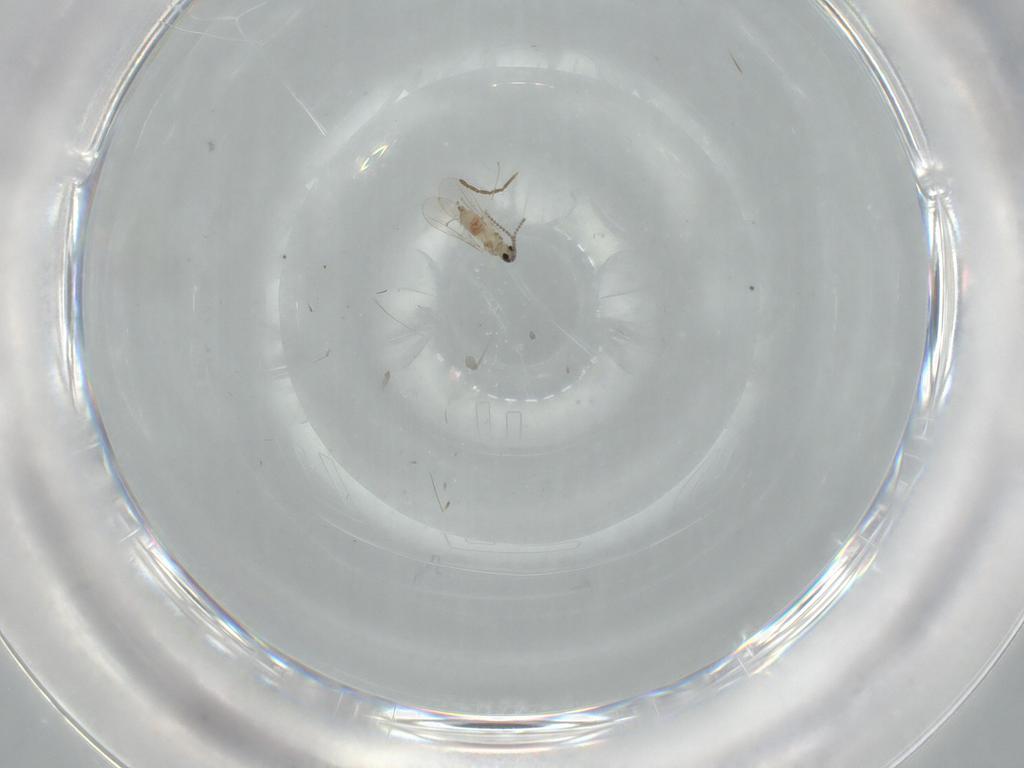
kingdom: Animalia
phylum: Arthropoda
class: Insecta
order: Diptera
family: Cecidomyiidae
